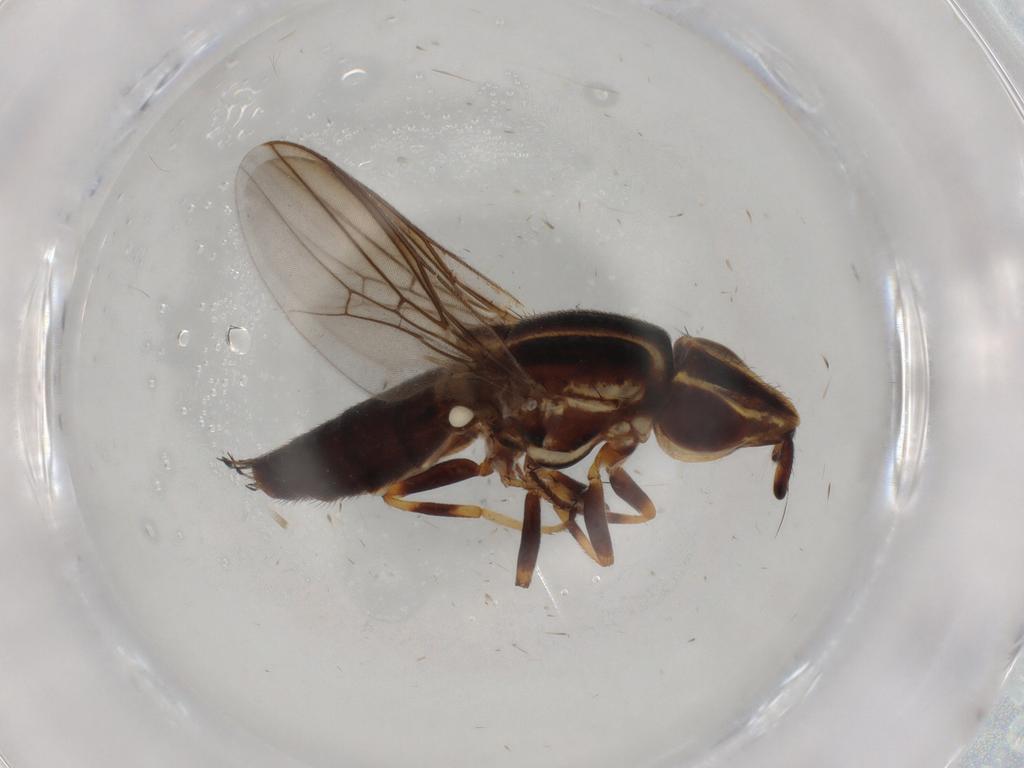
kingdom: Animalia
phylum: Arthropoda
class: Insecta
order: Diptera
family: Chloropidae
